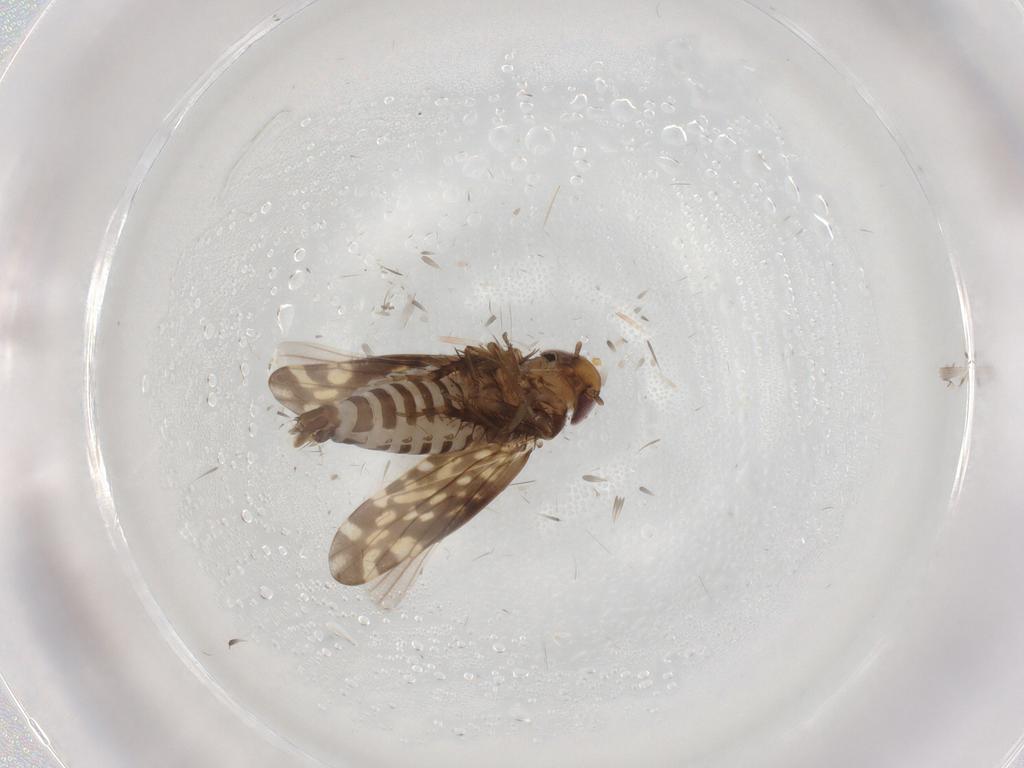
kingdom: Animalia
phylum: Arthropoda
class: Insecta
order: Hemiptera
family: Cicadellidae
